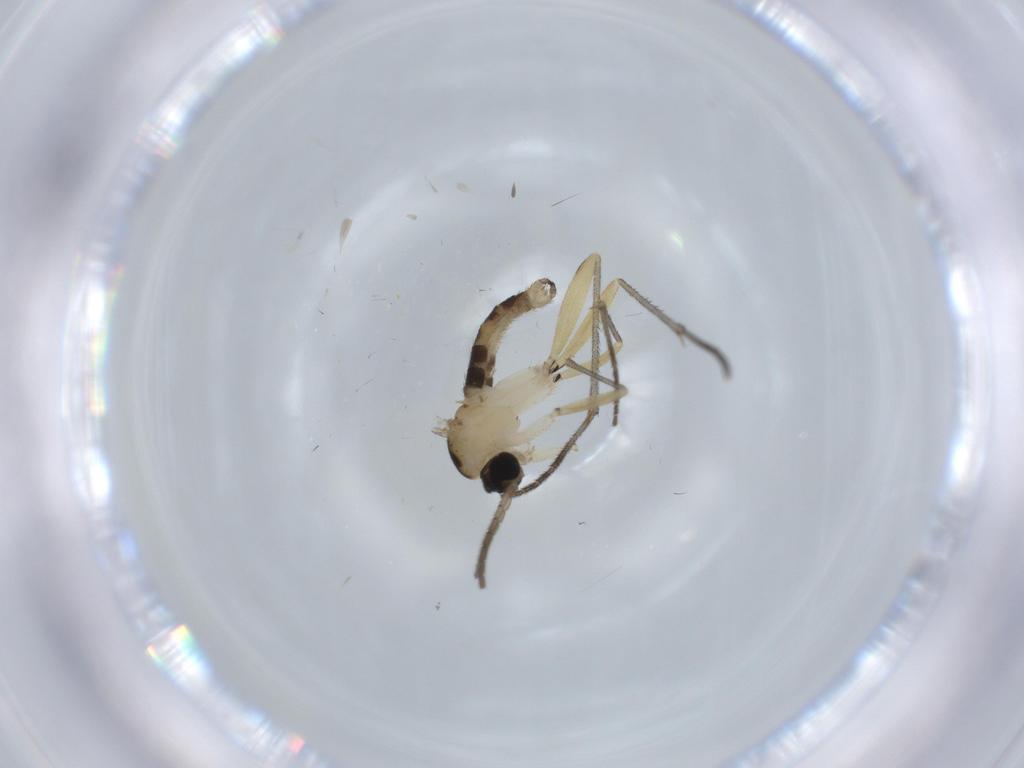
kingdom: Animalia
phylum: Arthropoda
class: Insecta
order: Diptera
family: Sciaridae
